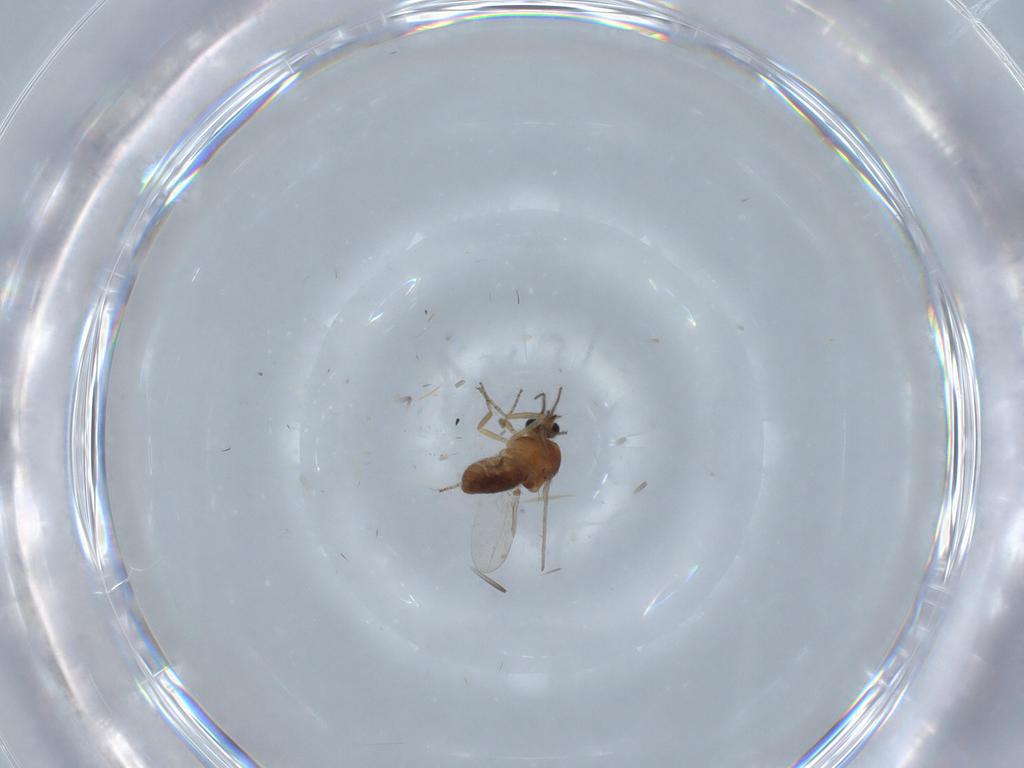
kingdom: Animalia
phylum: Arthropoda
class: Insecta
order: Diptera
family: Ceratopogonidae
